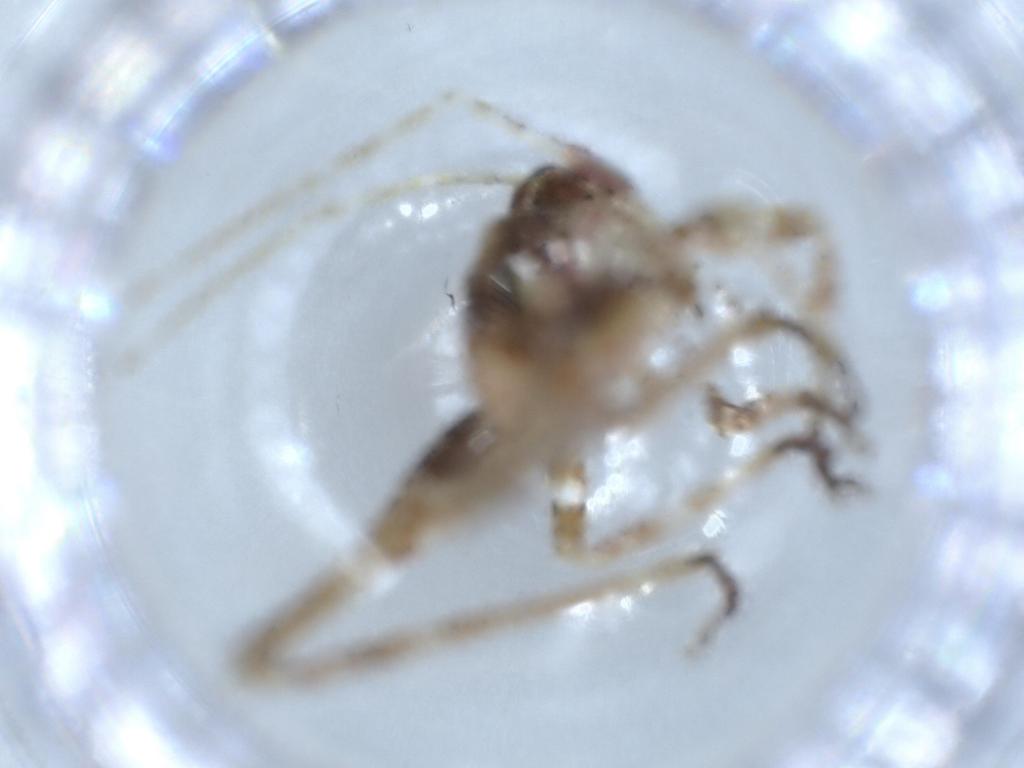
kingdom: Animalia
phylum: Arthropoda
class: Insecta
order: Orthoptera
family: Tettigoniidae
